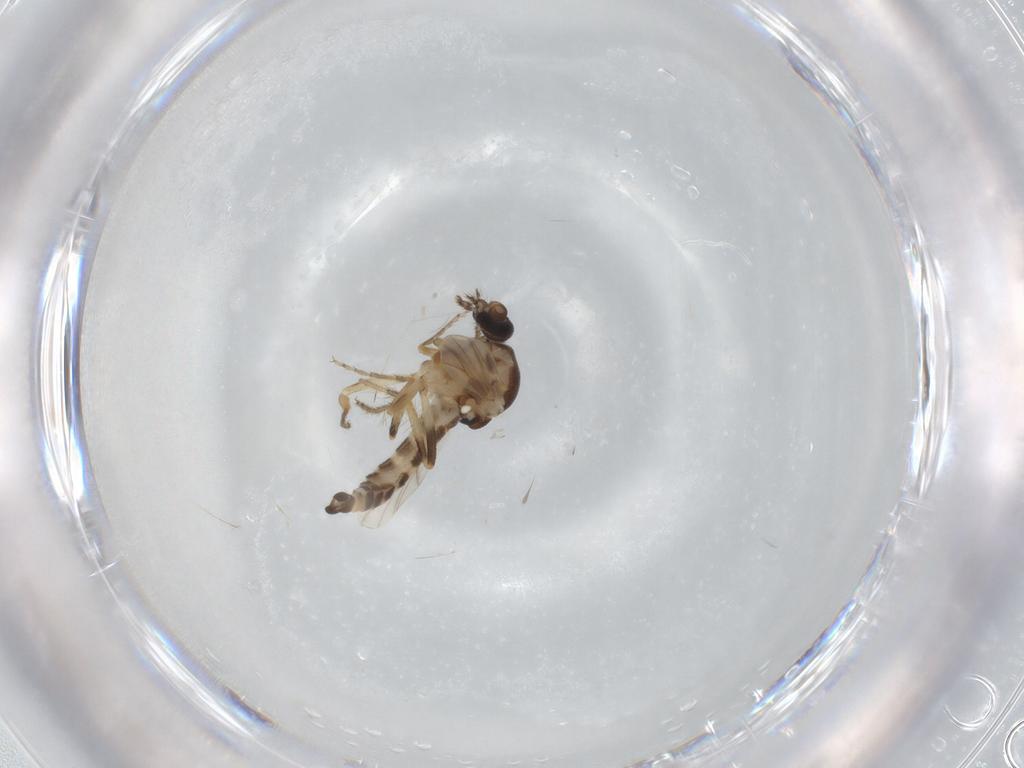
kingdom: Animalia
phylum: Arthropoda
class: Insecta
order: Diptera
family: Ceratopogonidae
